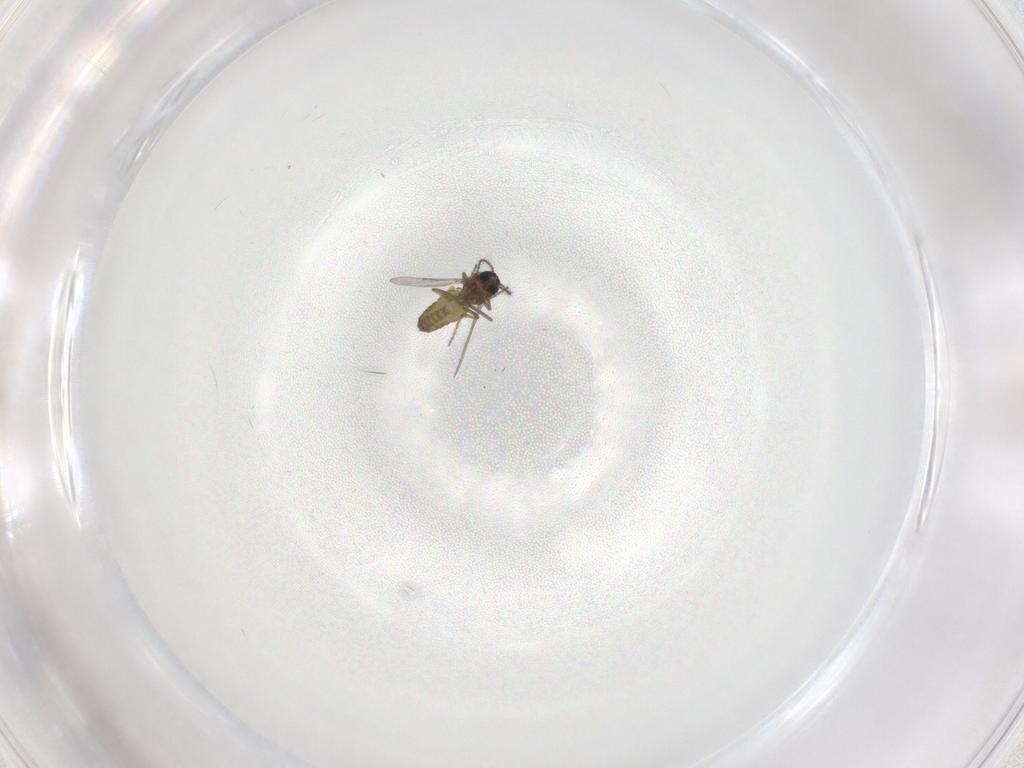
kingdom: Animalia
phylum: Arthropoda
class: Insecta
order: Diptera
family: Ceratopogonidae
